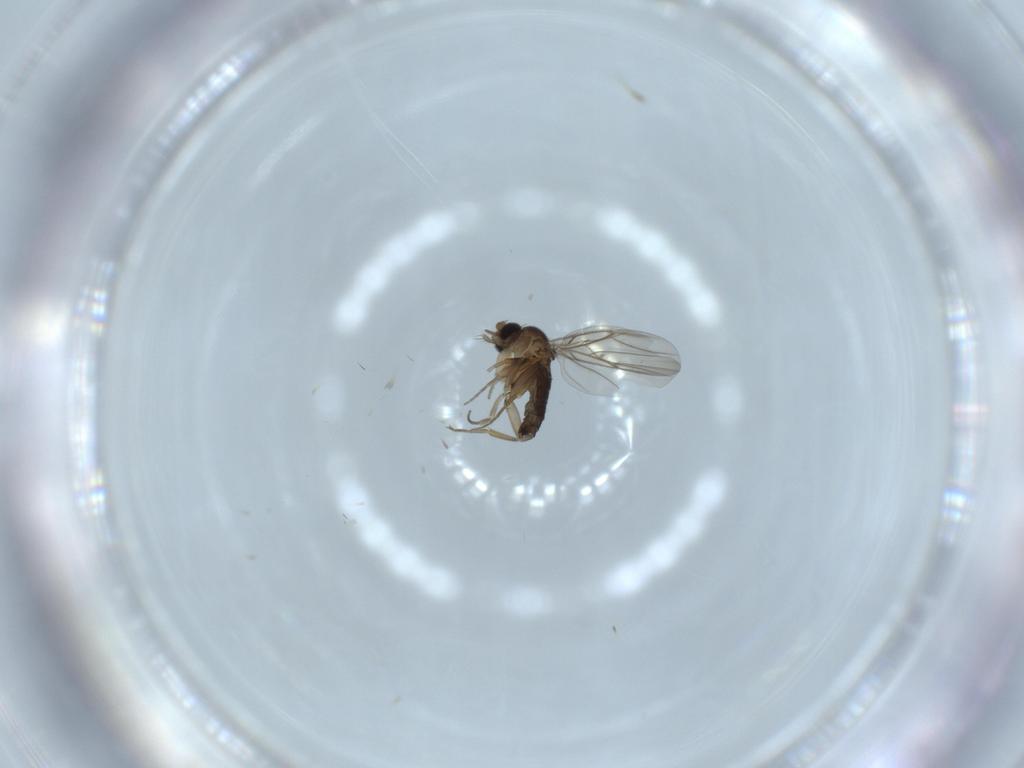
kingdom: Animalia
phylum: Arthropoda
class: Insecta
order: Diptera
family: Phoridae
